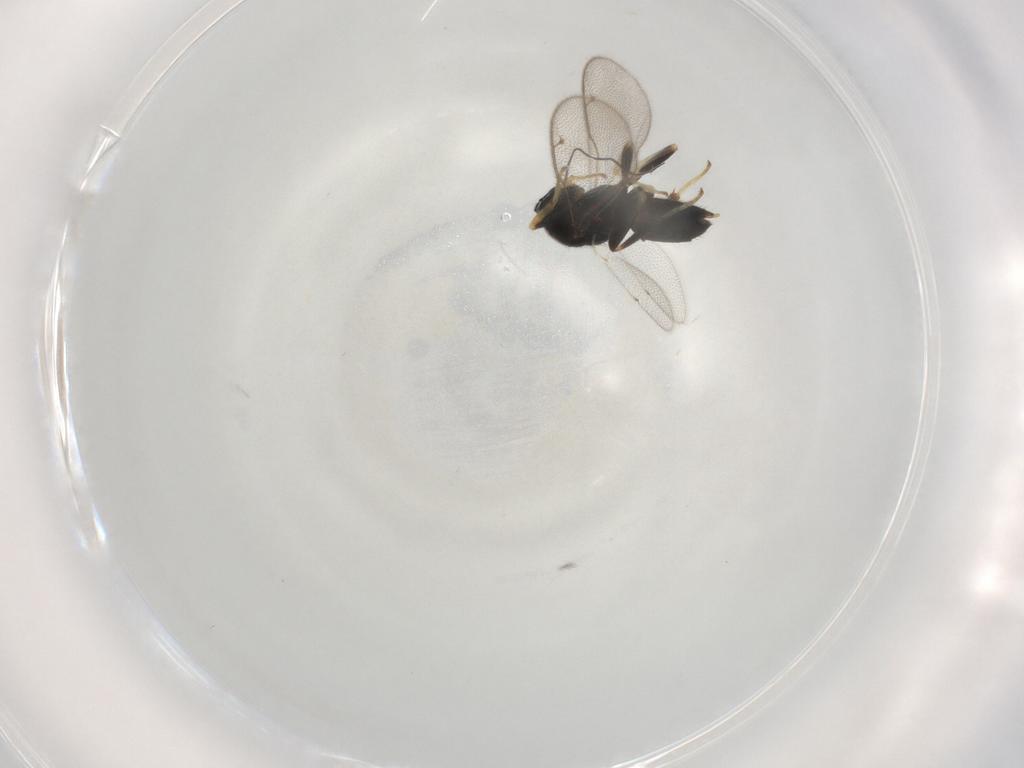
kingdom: Animalia
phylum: Arthropoda
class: Insecta
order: Hymenoptera
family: Eupelmidae
